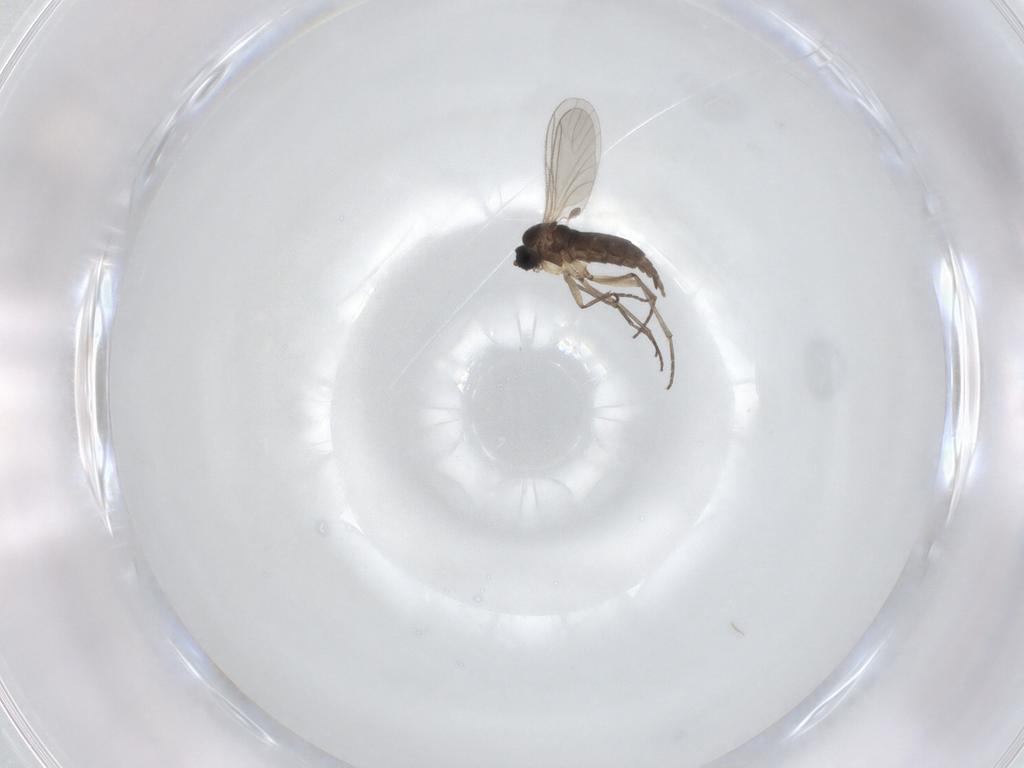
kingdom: Animalia
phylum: Arthropoda
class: Insecta
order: Diptera
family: Sciaridae
